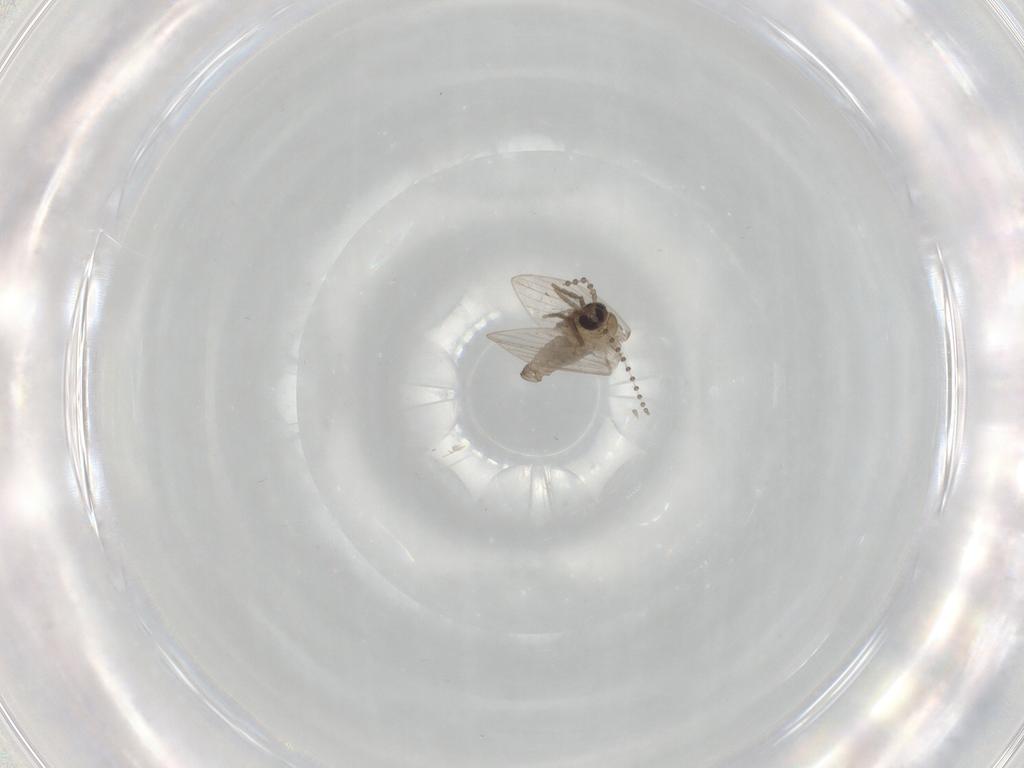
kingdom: Animalia
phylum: Arthropoda
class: Insecta
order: Diptera
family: Psychodidae
